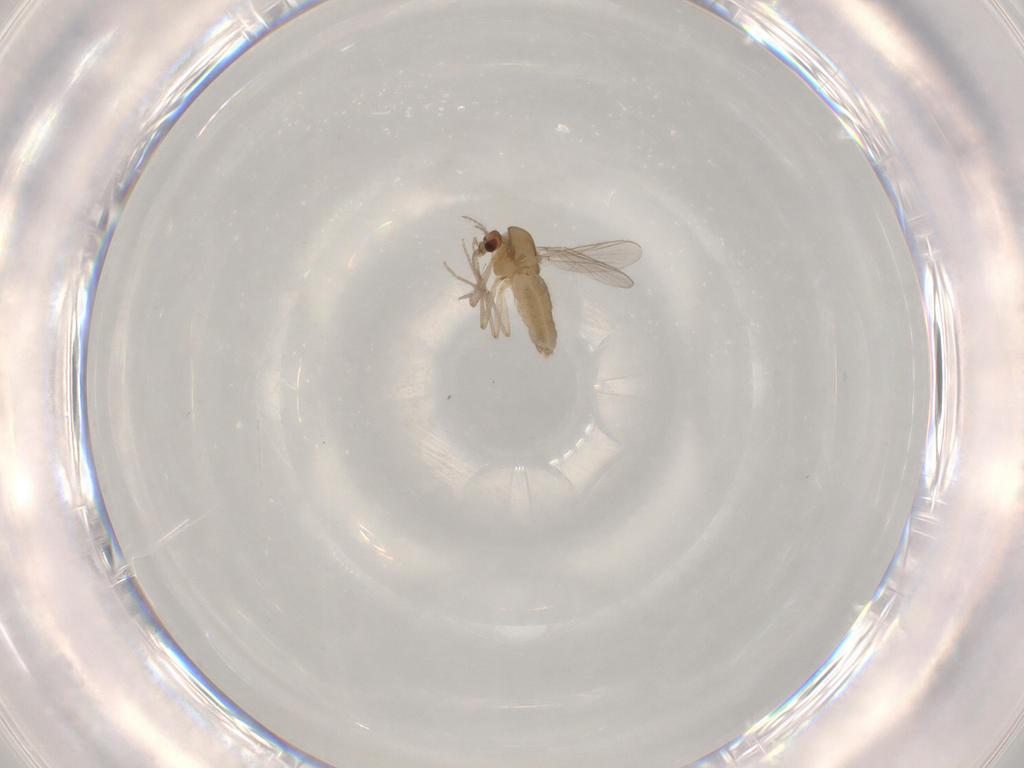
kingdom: Animalia
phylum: Arthropoda
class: Insecta
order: Diptera
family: Chironomidae
